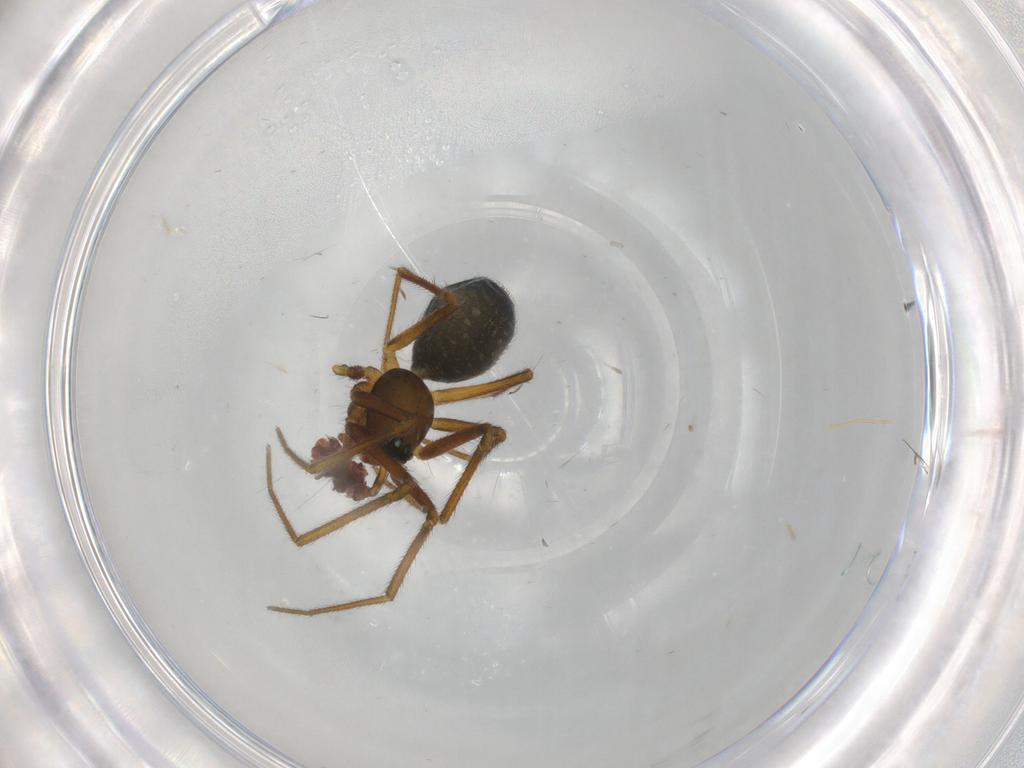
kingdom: Animalia
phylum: Arthropoda
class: Arachnida
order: Araneae
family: Linyphiidae
